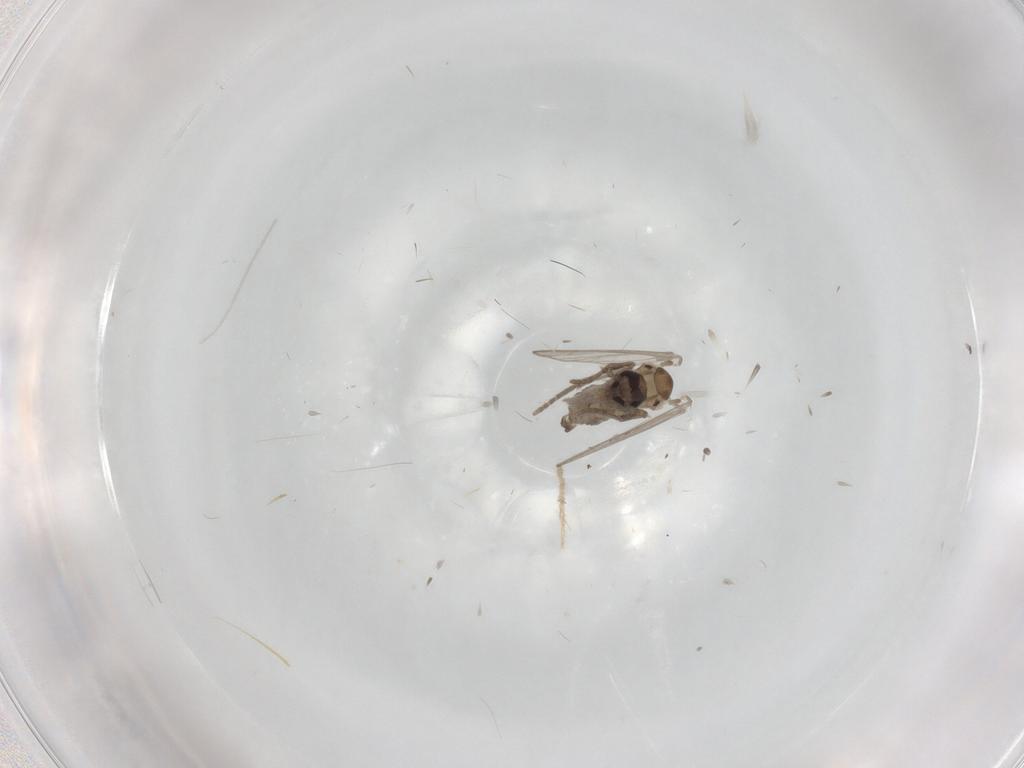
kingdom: Animalia
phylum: Arthropoda
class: Insecta
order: Diptera
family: Psychodidae
